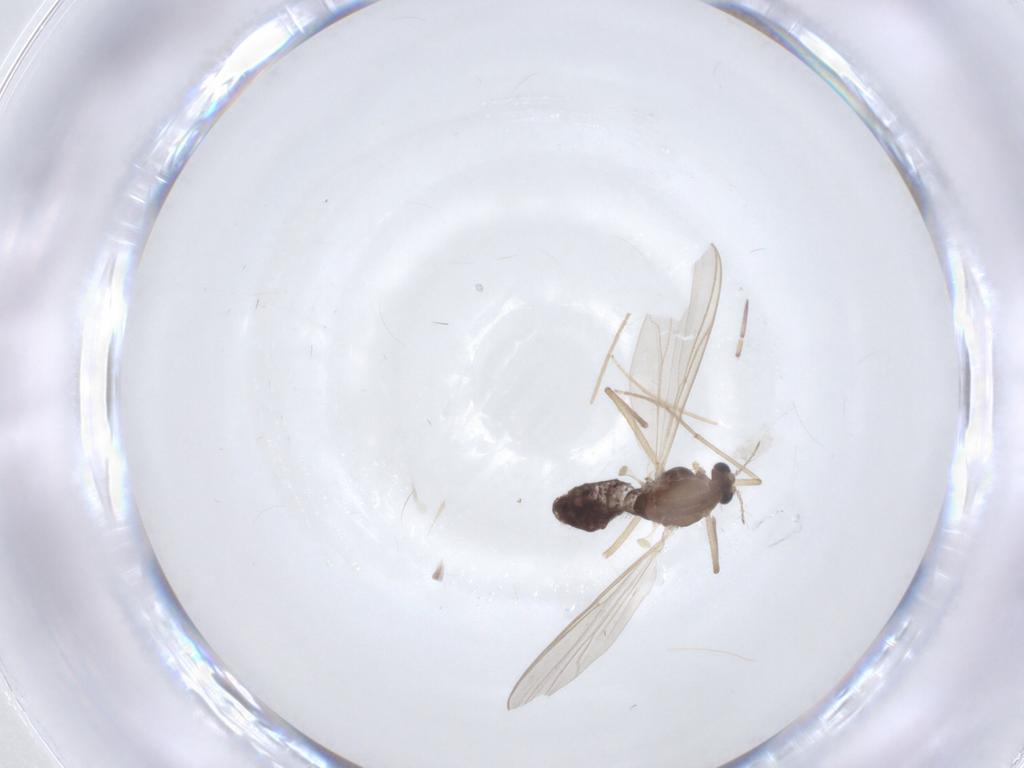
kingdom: Animalia
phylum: Arthropoda
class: Insecta
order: Diptera
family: Chironomidae
